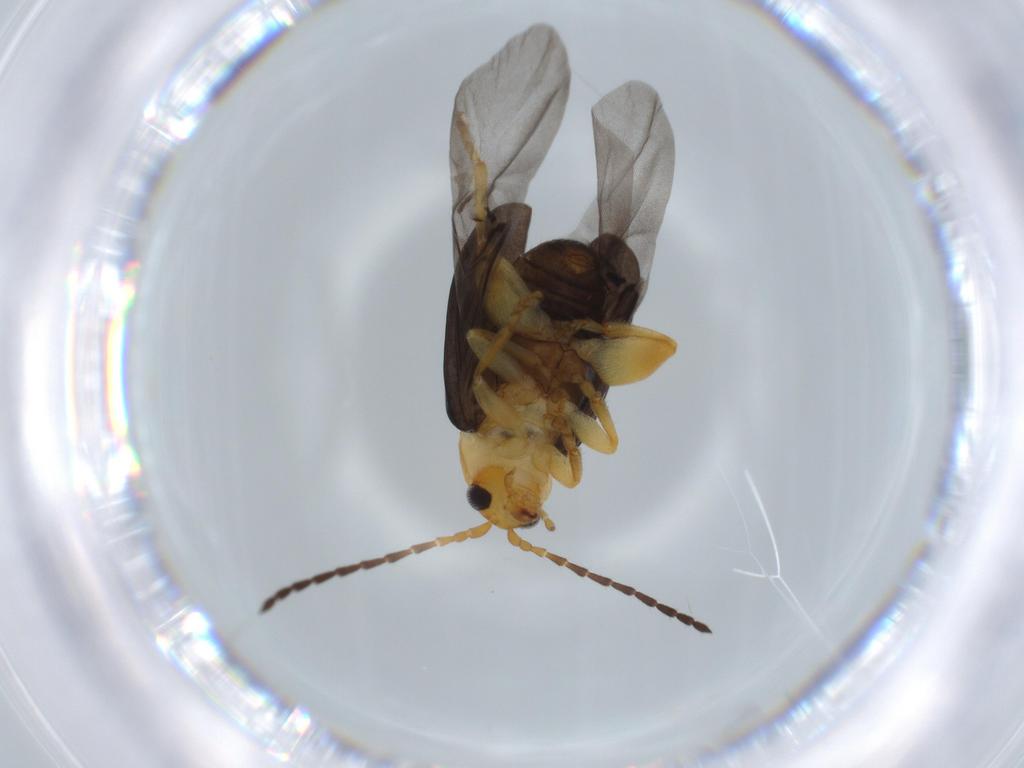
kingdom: Animalia
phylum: Arthropoda
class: Insecta
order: Coleoptera
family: Chrysomelidae
